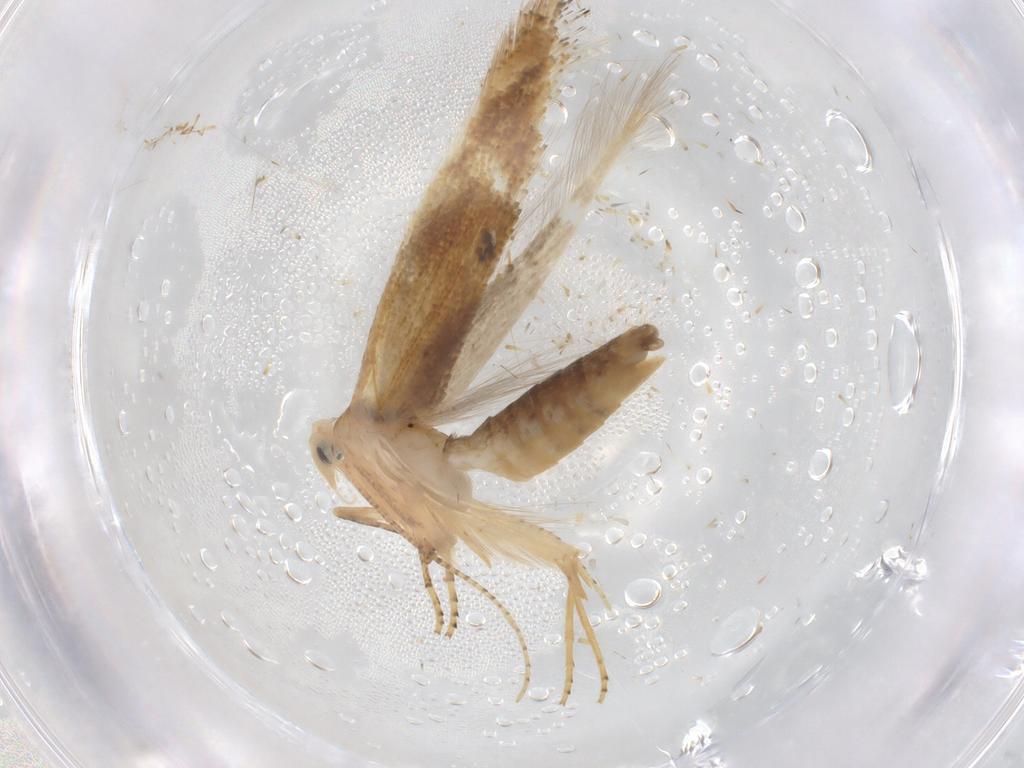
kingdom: Animalia
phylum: Arthropoda
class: Insecta
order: Lepidoptera
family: Bucculatricidae
